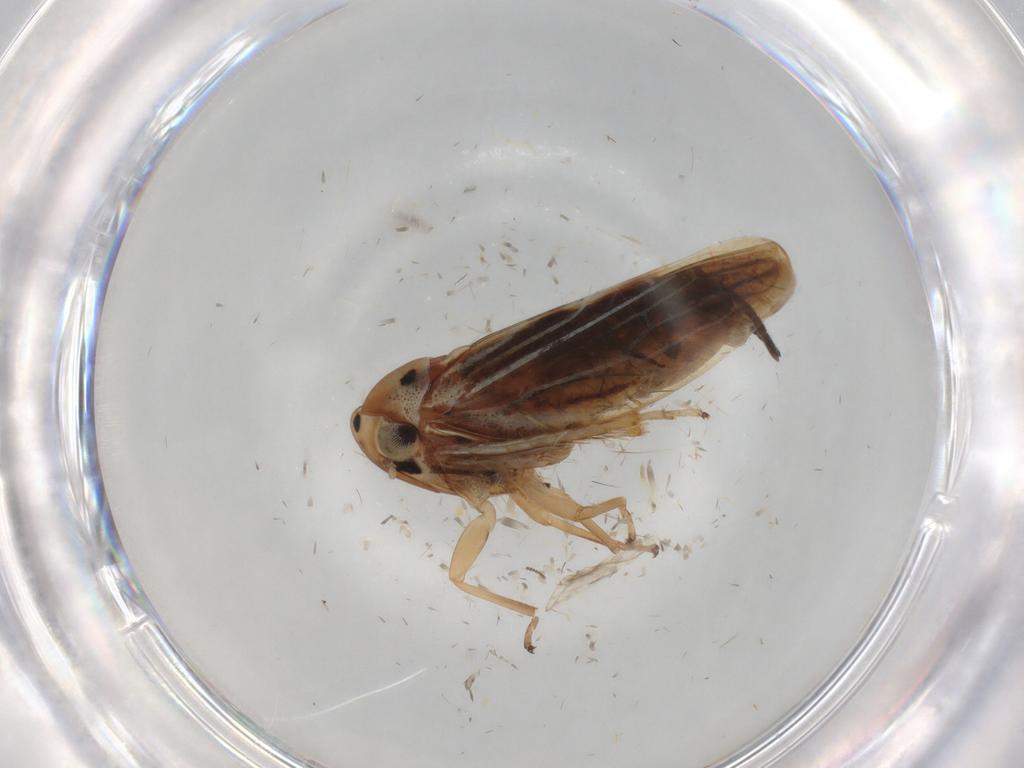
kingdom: Animalia
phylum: Arthropoda
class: Insecta
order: Hemiptera
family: Cicadellidae
